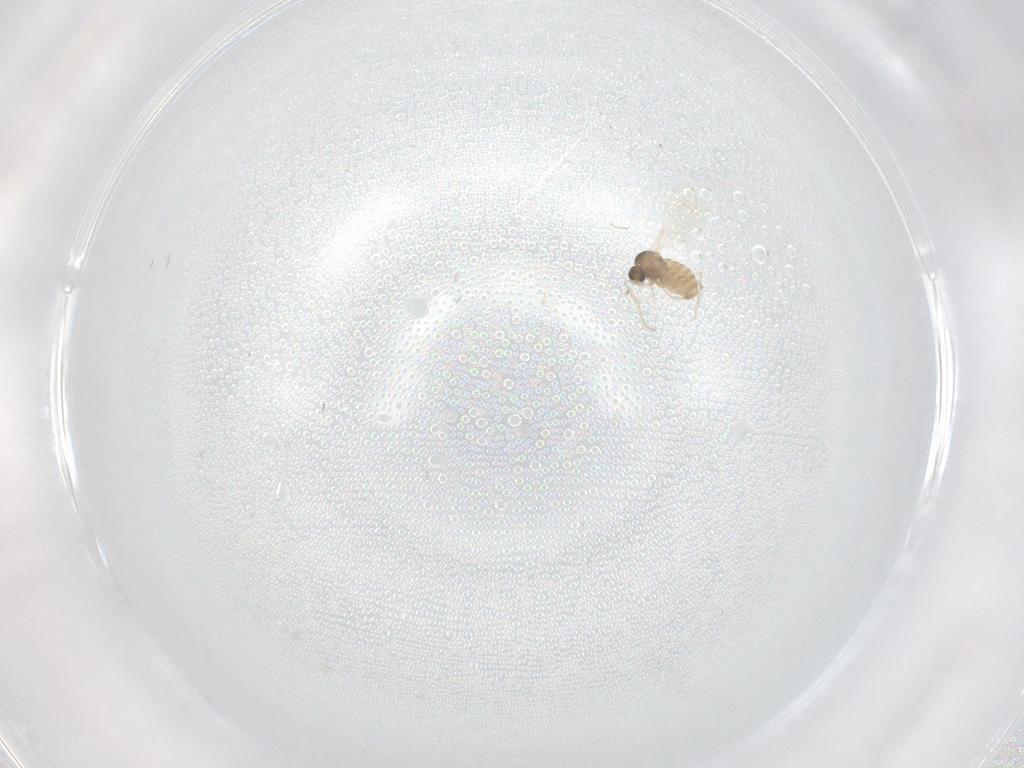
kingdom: Animalia
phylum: Arthropoda
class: Insecta
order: Diptera
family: Cecidomyiidae
